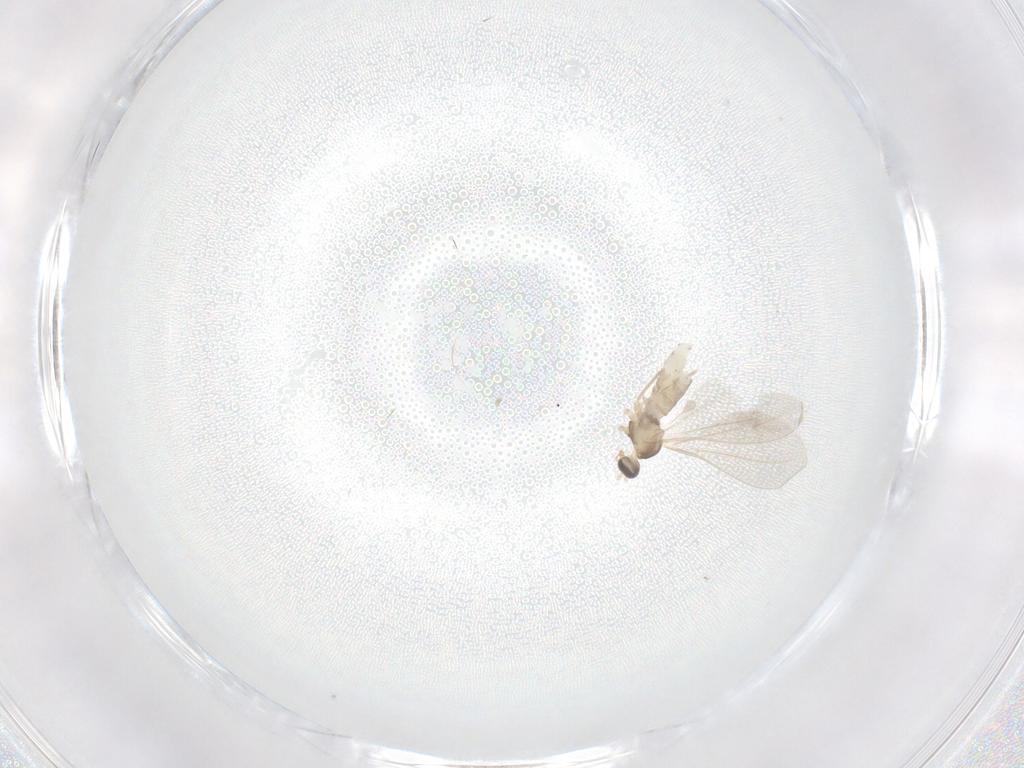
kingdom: Animalia
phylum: Arthropoda
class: Insecta
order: Diptera
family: Cecidomyiidae
